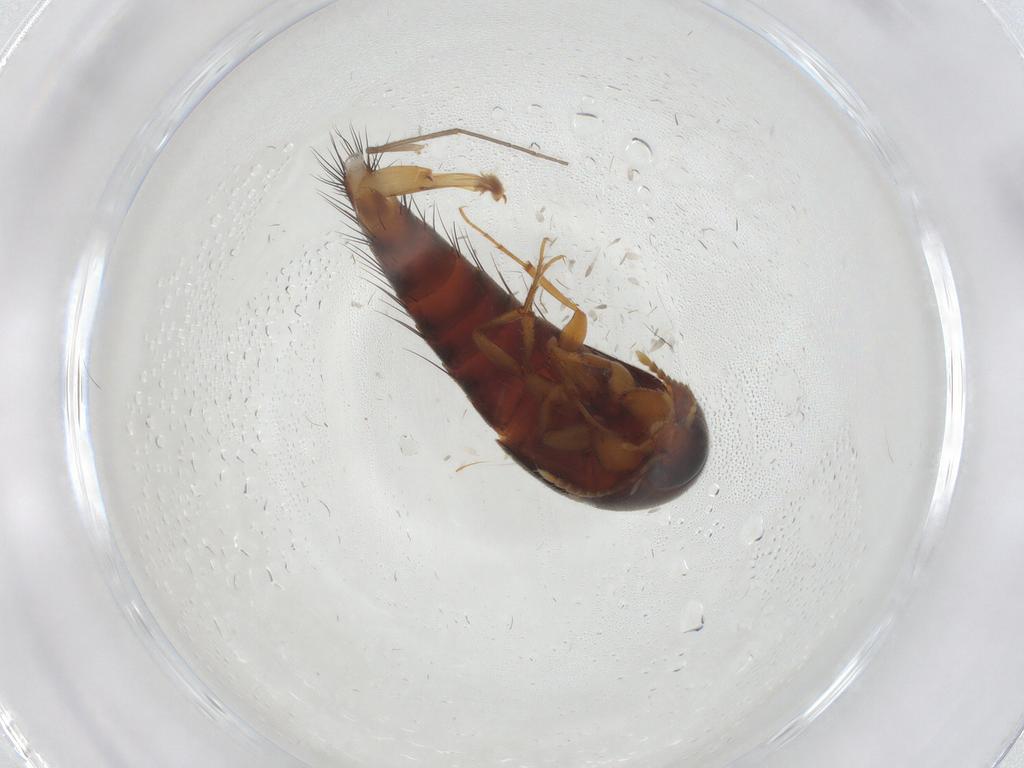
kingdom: Animalia
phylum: Arthropoda
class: Insecta
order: Coleoptera
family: Staphylinidae
